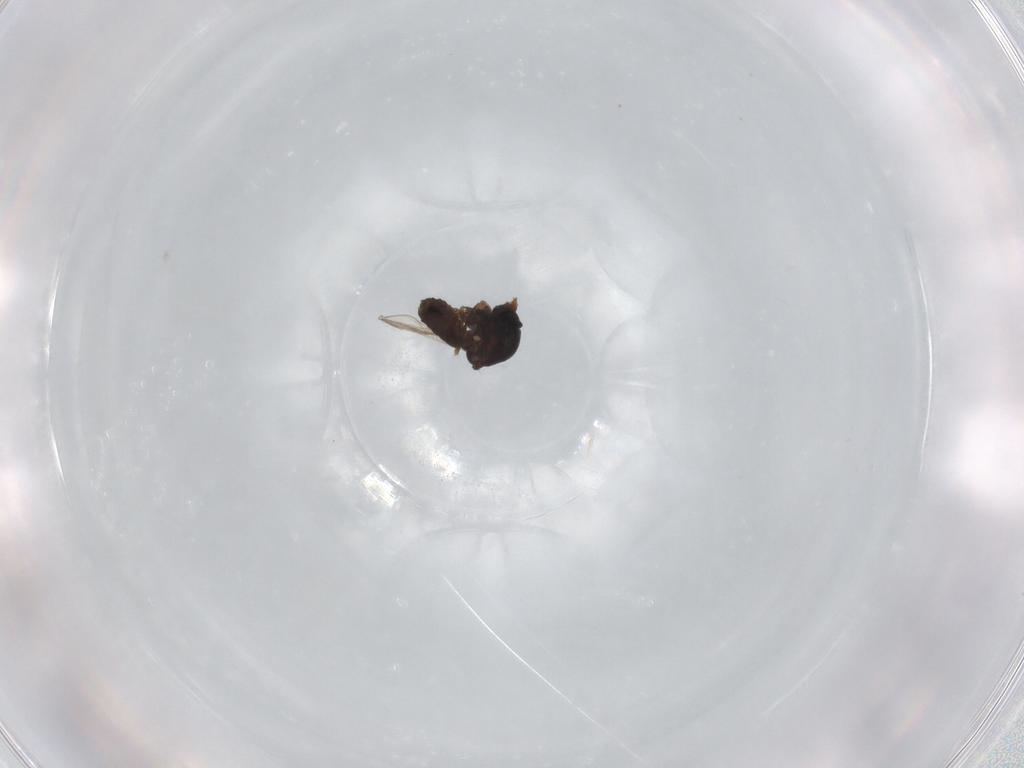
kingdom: Animalia
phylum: Arthropoda
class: Insecta
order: Diptera
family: Ceratopogonidae
